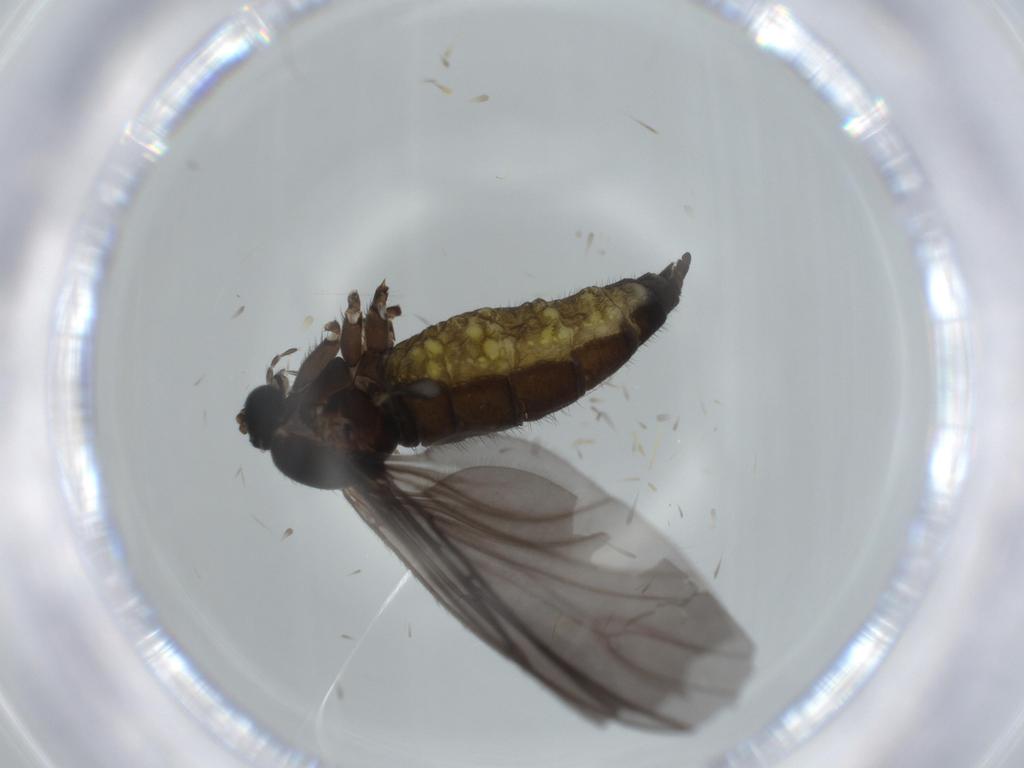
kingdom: Animalia
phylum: Arthropoda
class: Insecta
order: Diptera
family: Sciaridae
